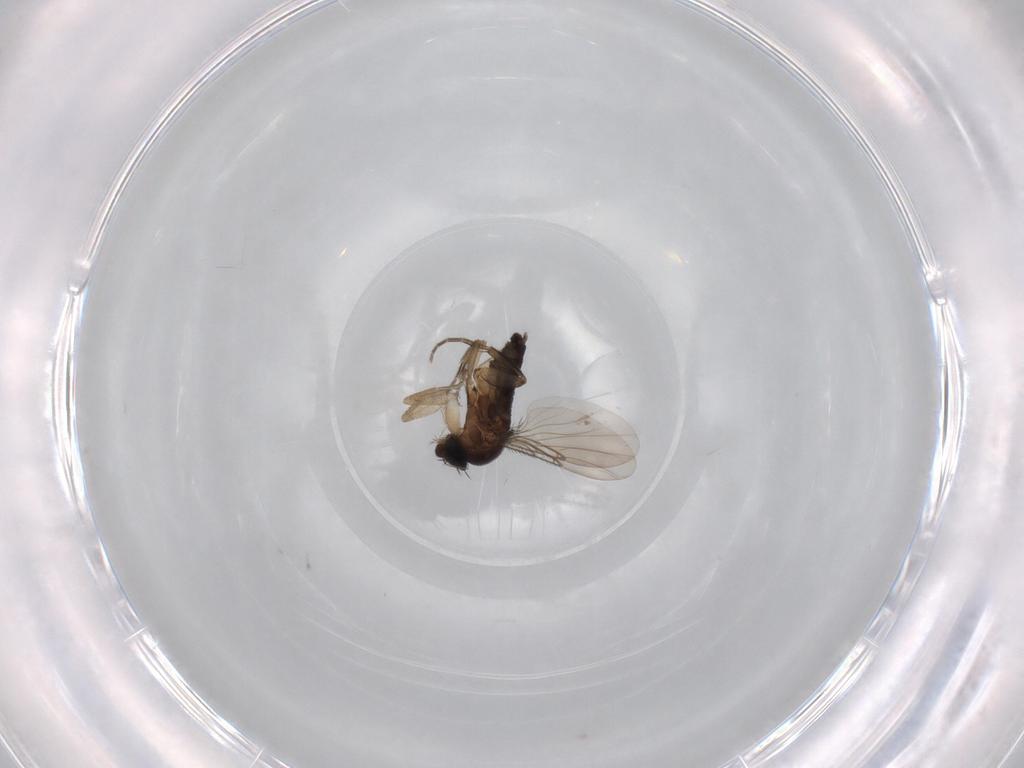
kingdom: Animalia
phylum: Arthropoda
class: Insecta
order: Diptera
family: Phoridae
